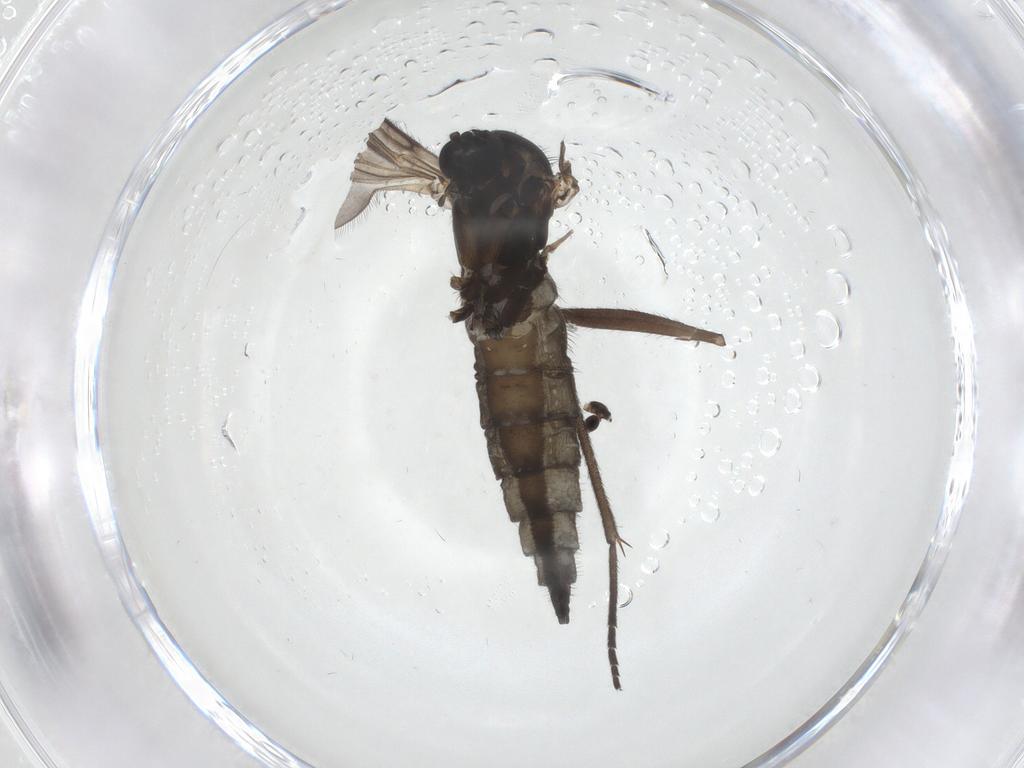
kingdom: Animalia
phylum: Arthropoda
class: Insecta
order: Diptera
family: Sciaridae
